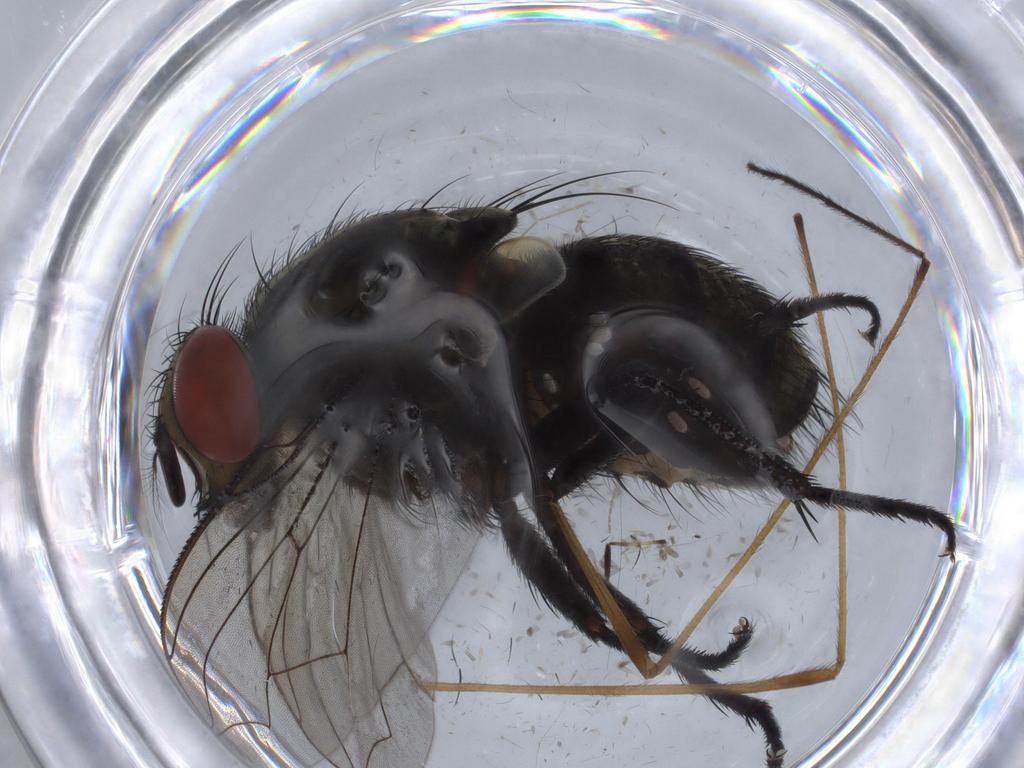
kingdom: Animalia
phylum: Arthropoda
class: Insecta
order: Diptera
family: Sarcophagidae
